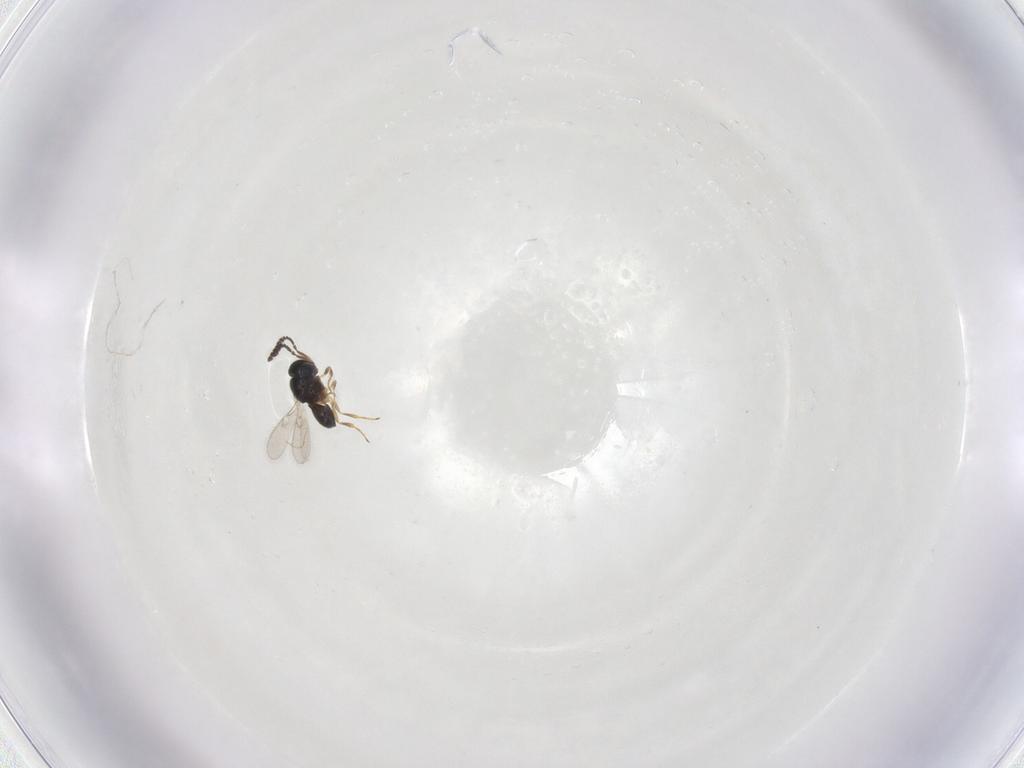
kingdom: Animalia
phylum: Arthropoda
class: Insecta
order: Hymenoptera
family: Scelionidae
